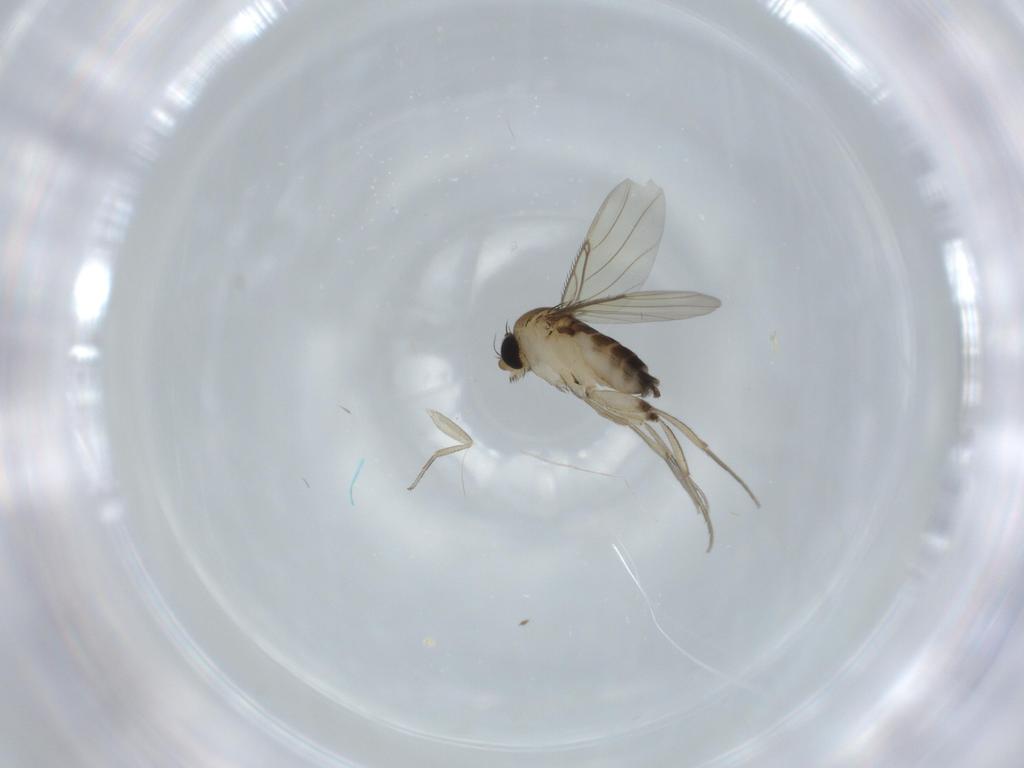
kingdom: Animalia
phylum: Arthropoda
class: Insecta
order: Diptera
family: Phoridae
